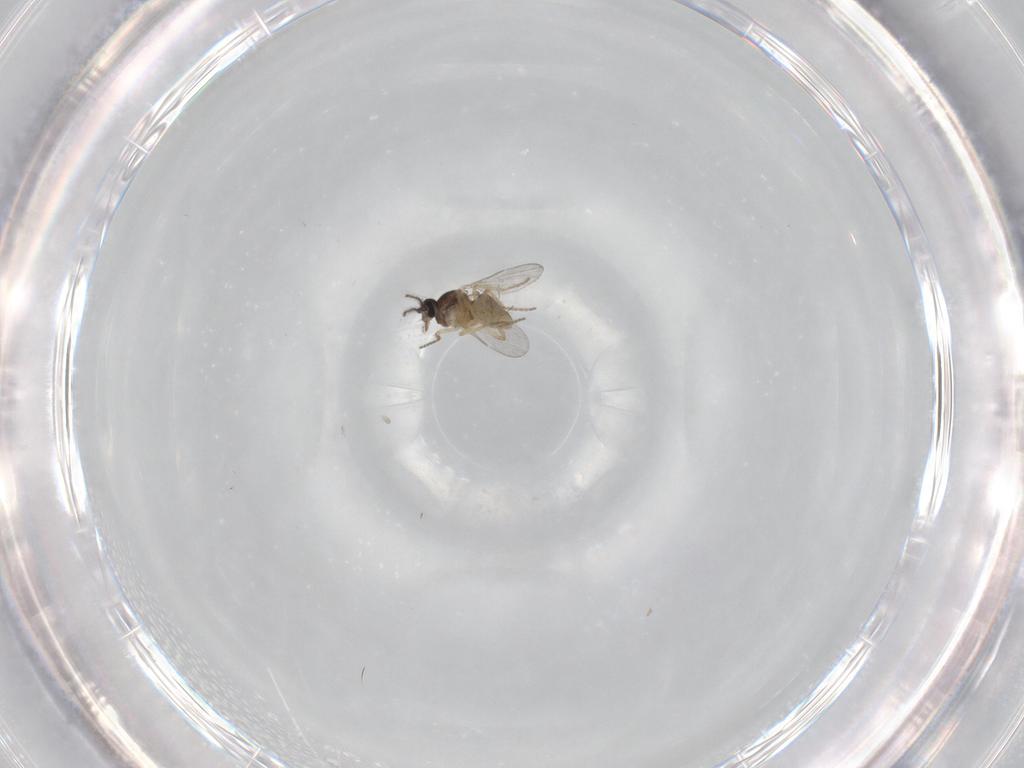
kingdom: Animalia
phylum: Arthropoda
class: Insecta
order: Diptera
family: Ceratopogonidae
